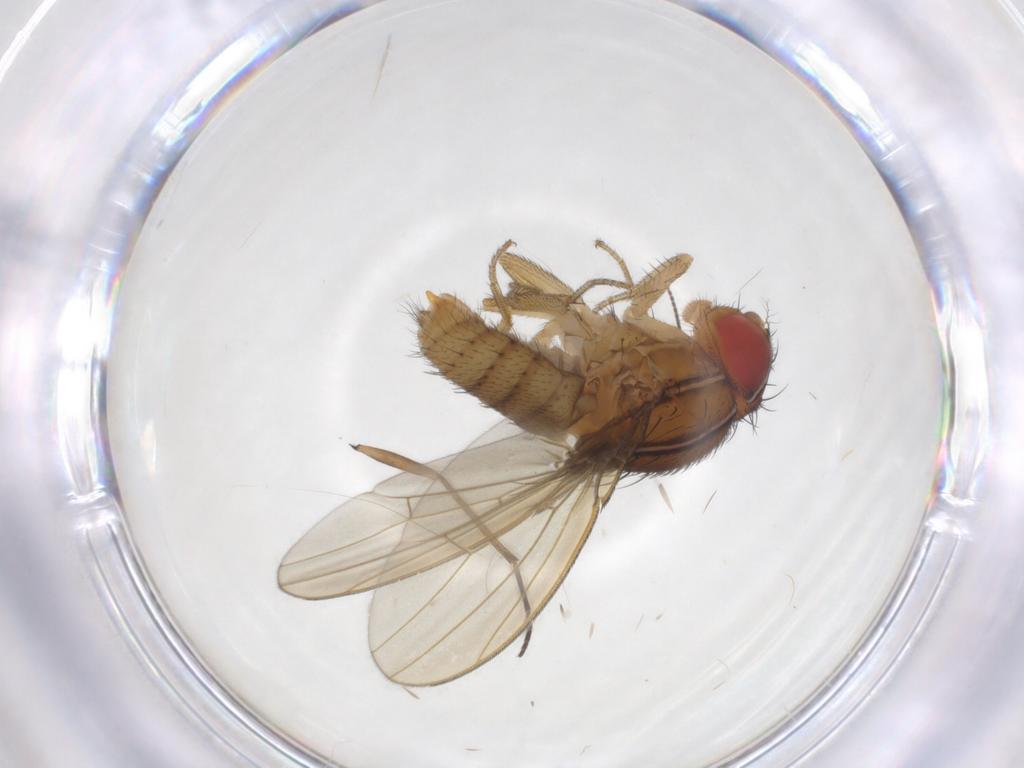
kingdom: Animalia
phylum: Arthropoda
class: Insecta
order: Diptera
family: Drosophilidae
